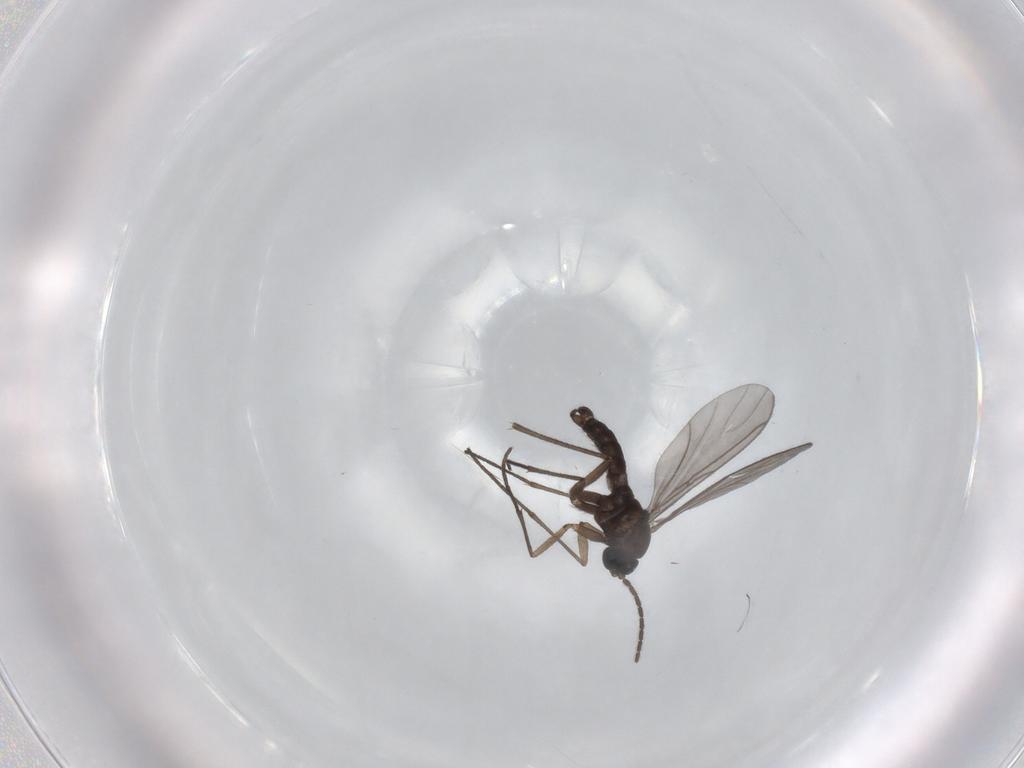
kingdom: Animalia
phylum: Arthropoda
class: Insecta
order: Diptera
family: Sciaridae
